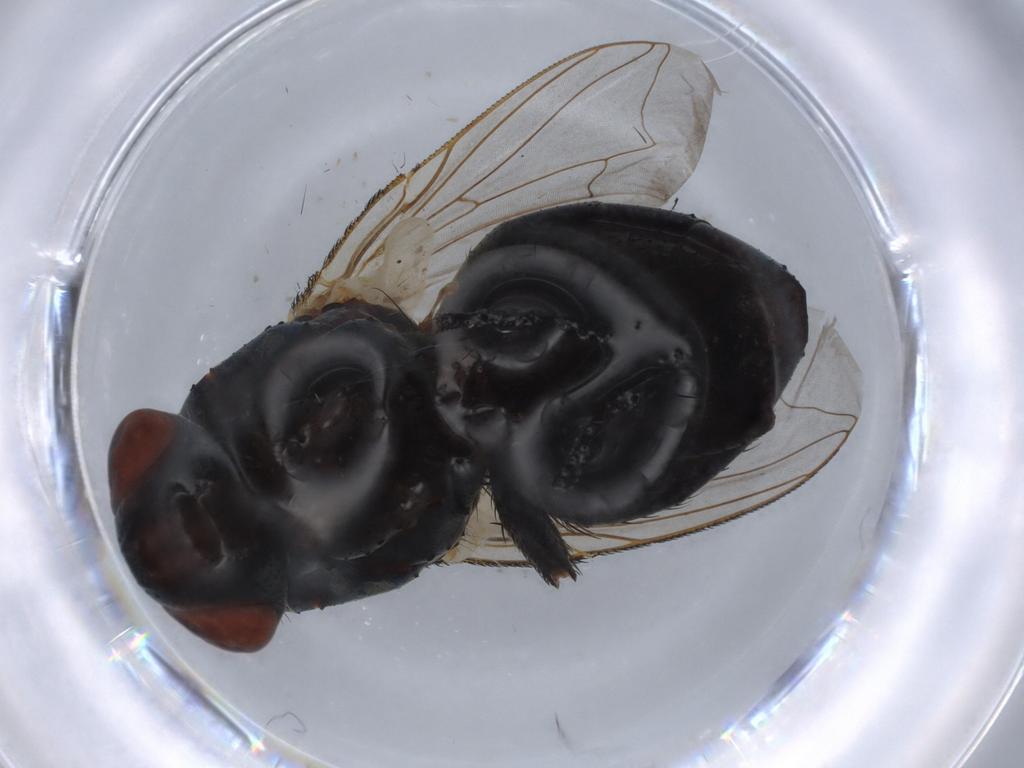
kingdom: Animalia
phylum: Arthropoda
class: Insecta
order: Diptera
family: Sarcophagidae
